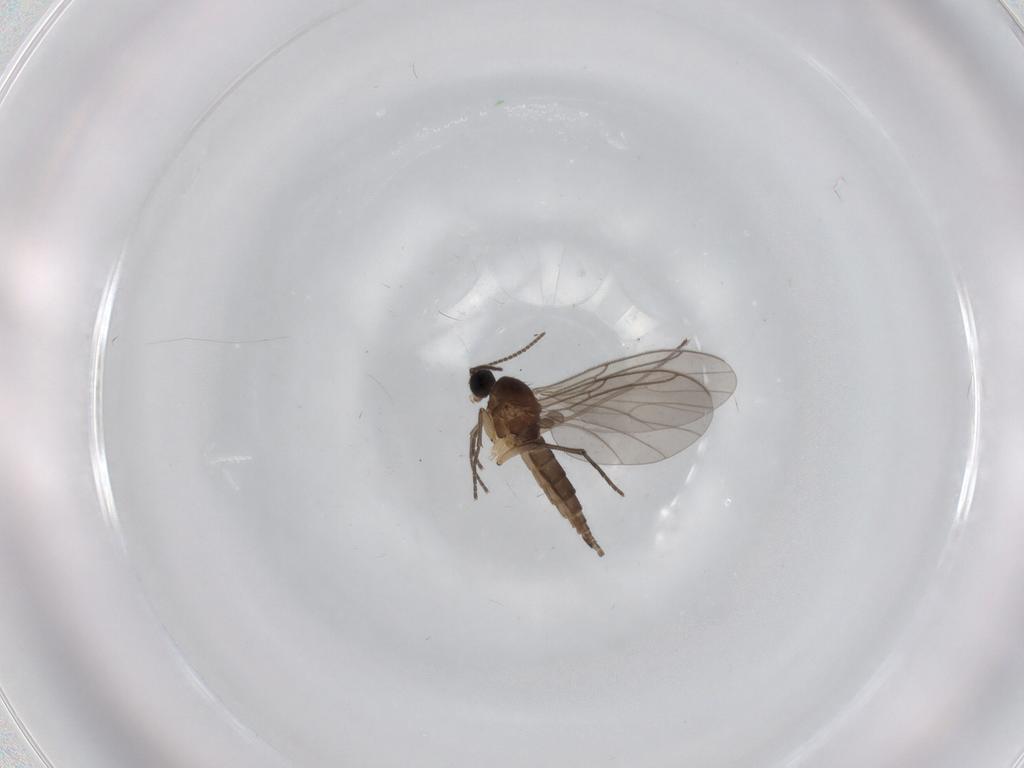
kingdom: Animalia
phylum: Arthropoda
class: Insecta
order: Diptera
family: Sciaridae
